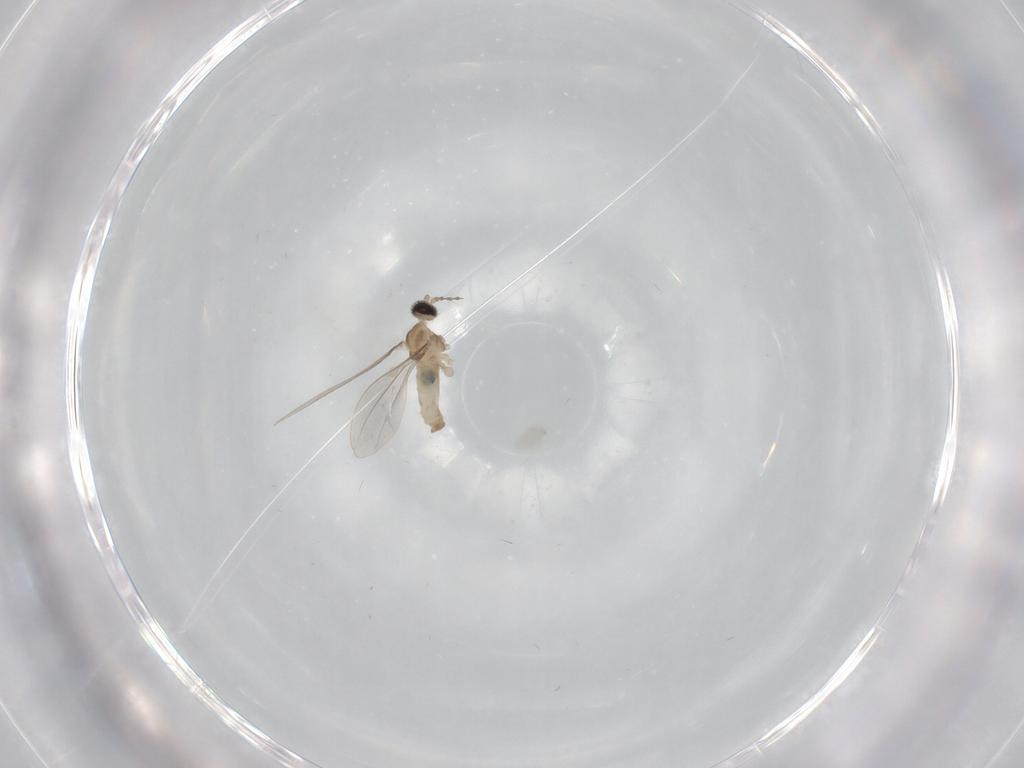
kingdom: Animalia
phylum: Arthropoda
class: Insecta
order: Diptera
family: Cecidomyiidae
